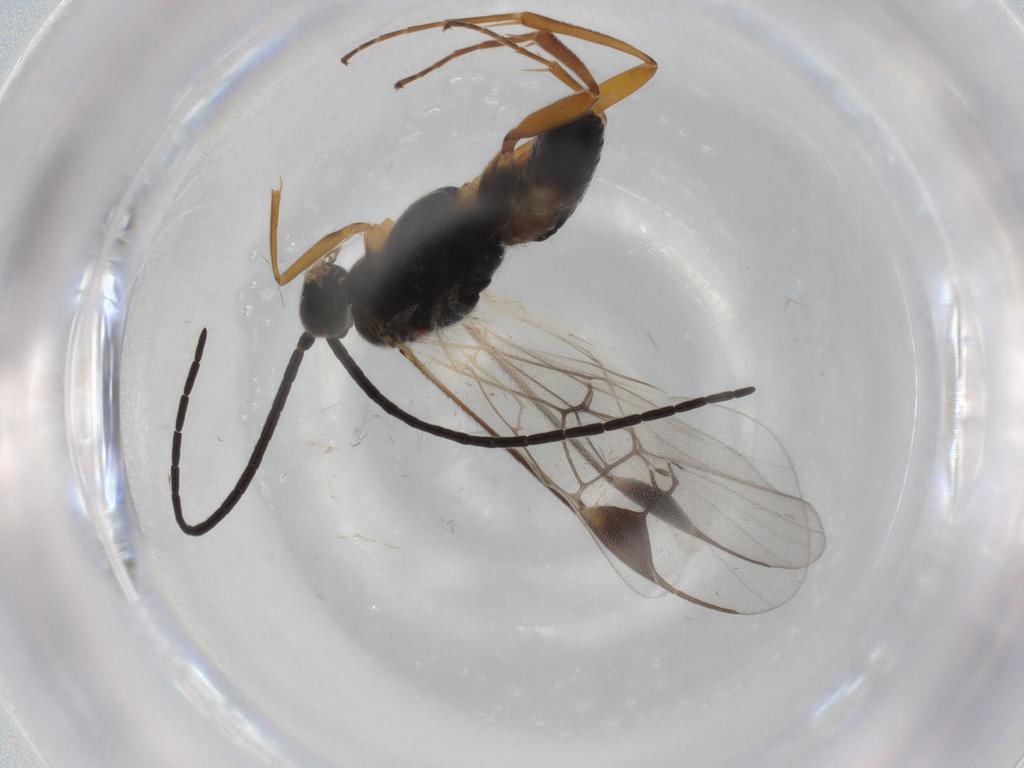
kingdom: Animalia
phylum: Arthropoda
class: Insecta
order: Hymenoptera
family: Braconidae
